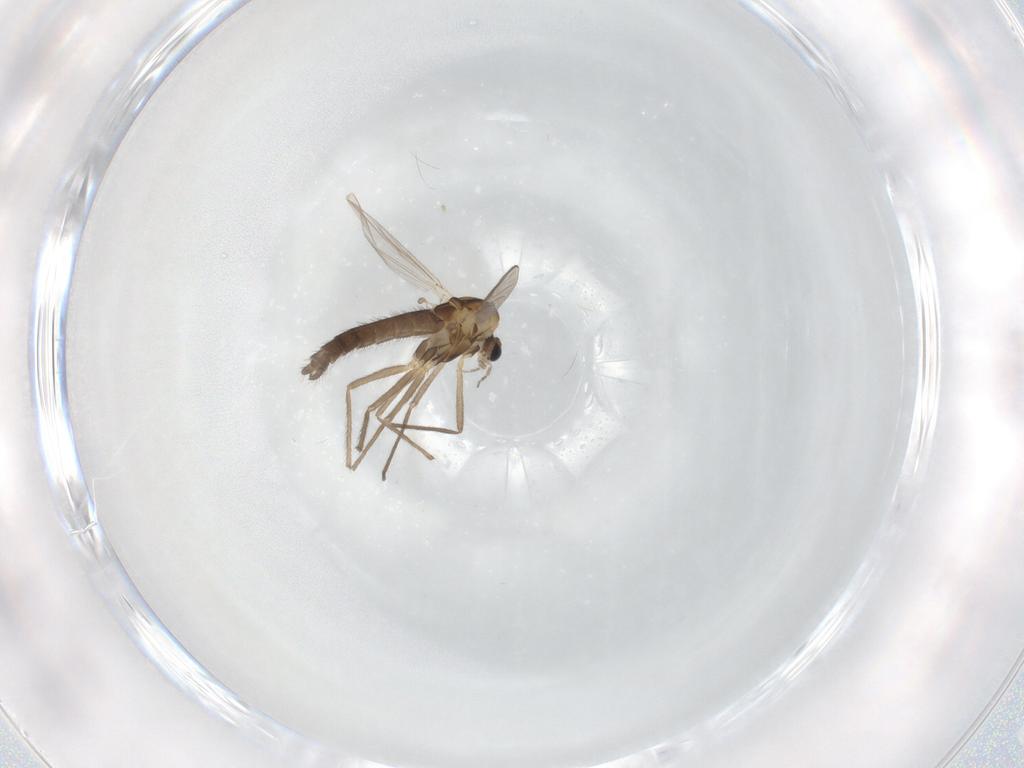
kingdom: Animalia
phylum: Arthropoda
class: Insecta
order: Diptera
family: Chironomidae
